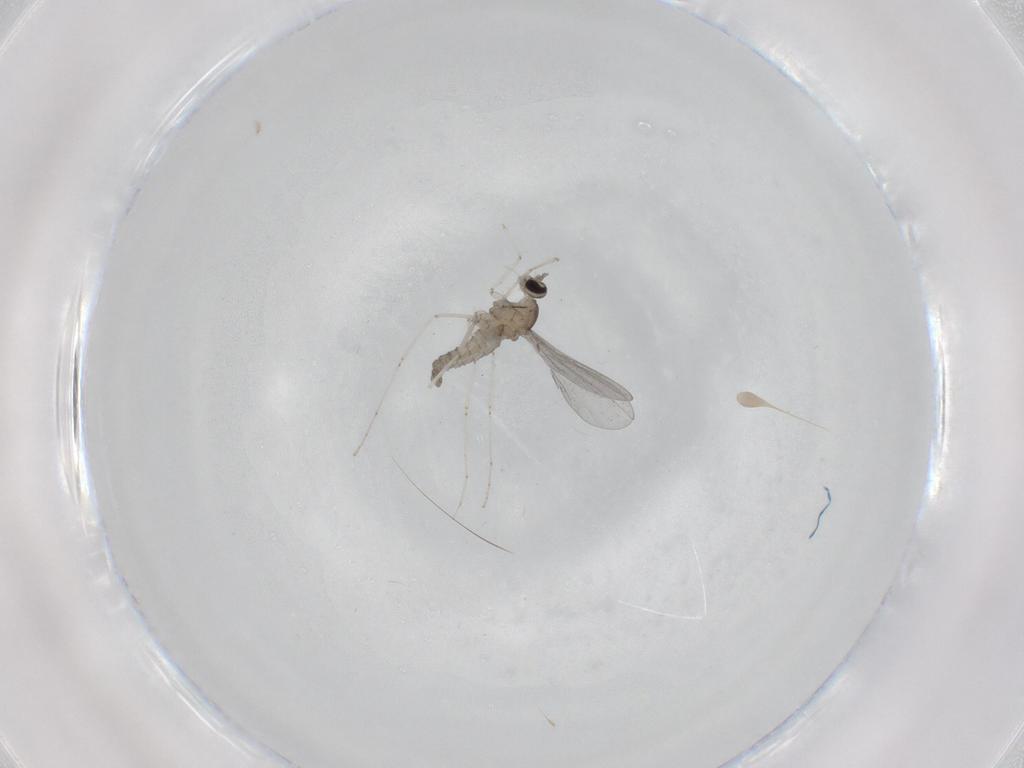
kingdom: Animalia
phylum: Arthropoda
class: Insecta
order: Diptera
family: Cecidomyiidae
